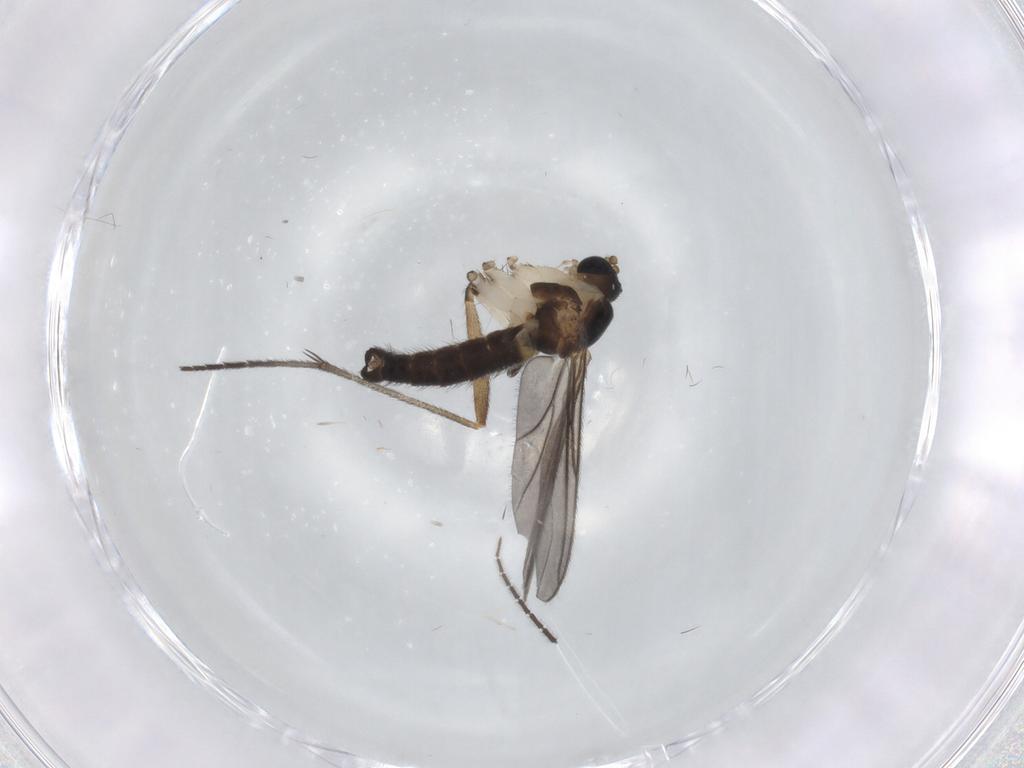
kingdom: Animalia
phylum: Arthropoda
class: Insecta
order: Diptera
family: Sciaridae
